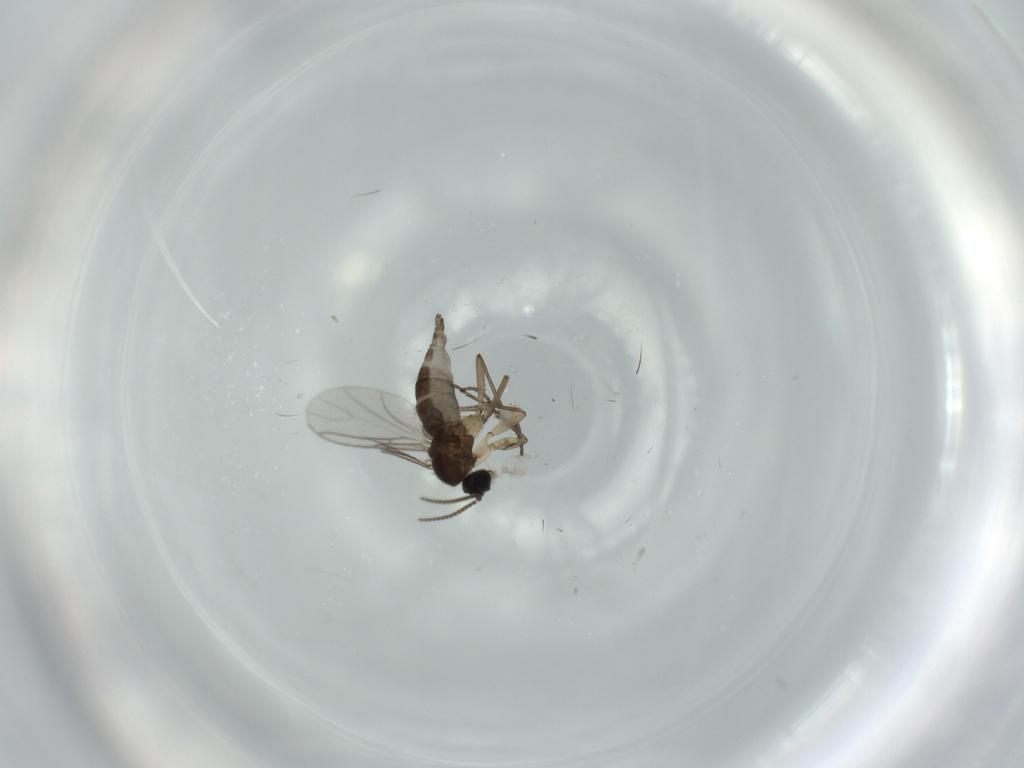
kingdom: Animalia
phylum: Arthropoda
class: Insecta
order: Diptera
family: Sciaridae
